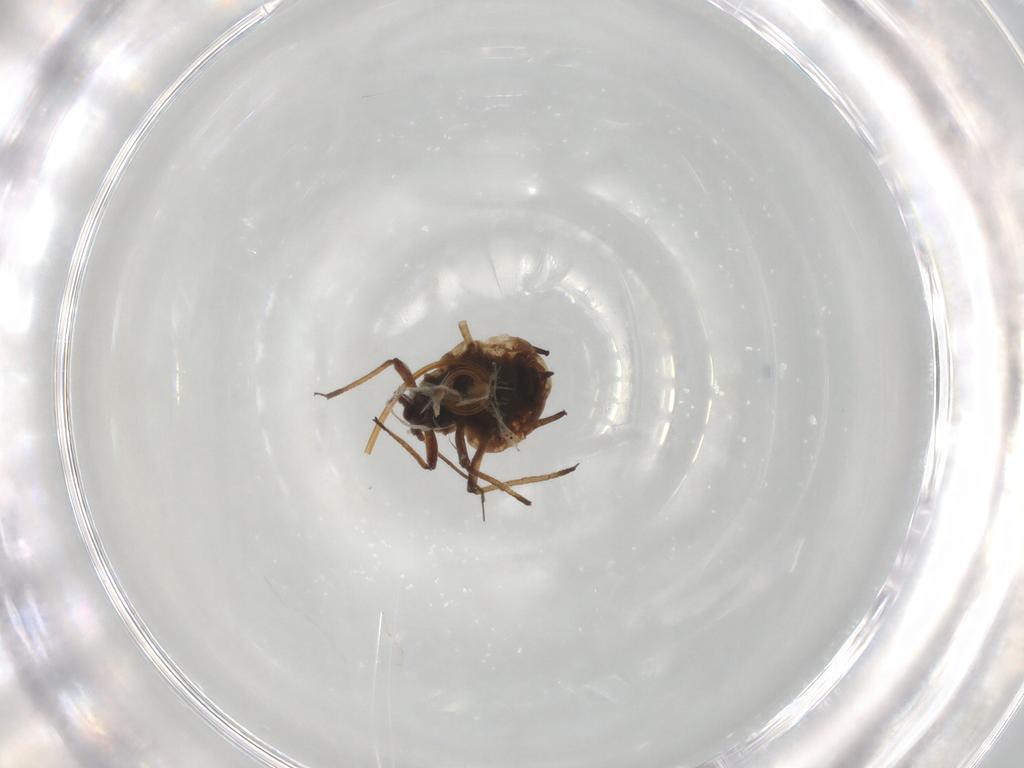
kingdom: Animalia
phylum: Arthropoda
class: Insecta
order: Hemiptera
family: Aphididae
